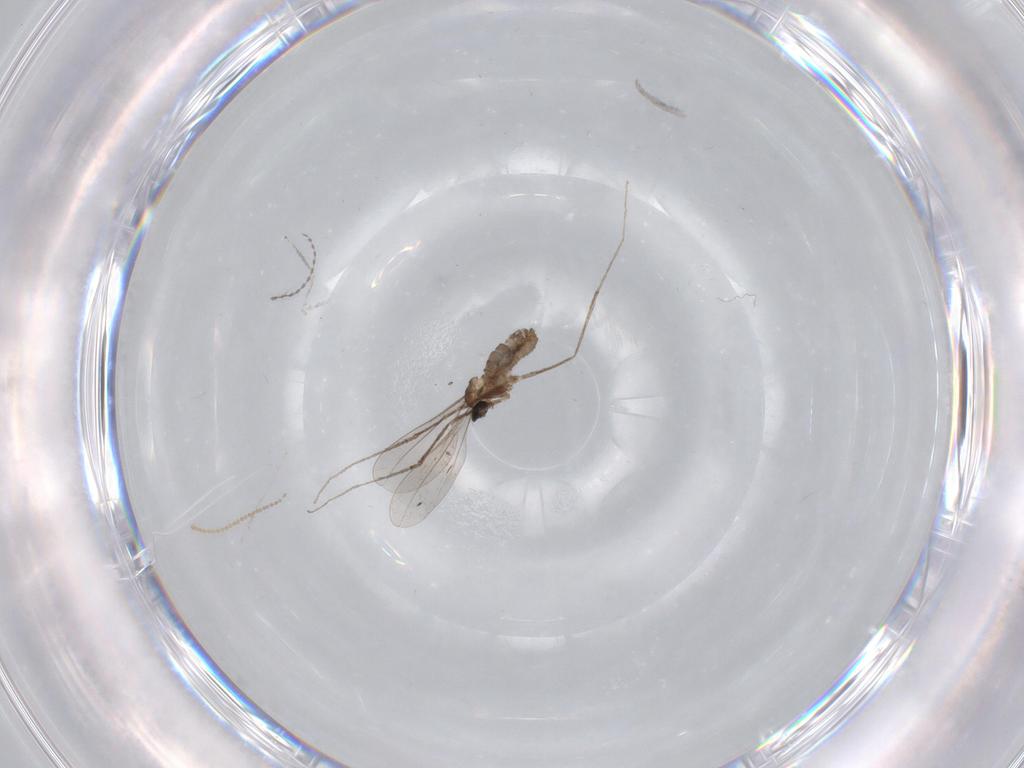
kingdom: Animalia
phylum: Arthropoda
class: Insecta
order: Diptera
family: Cecidomyiidae
